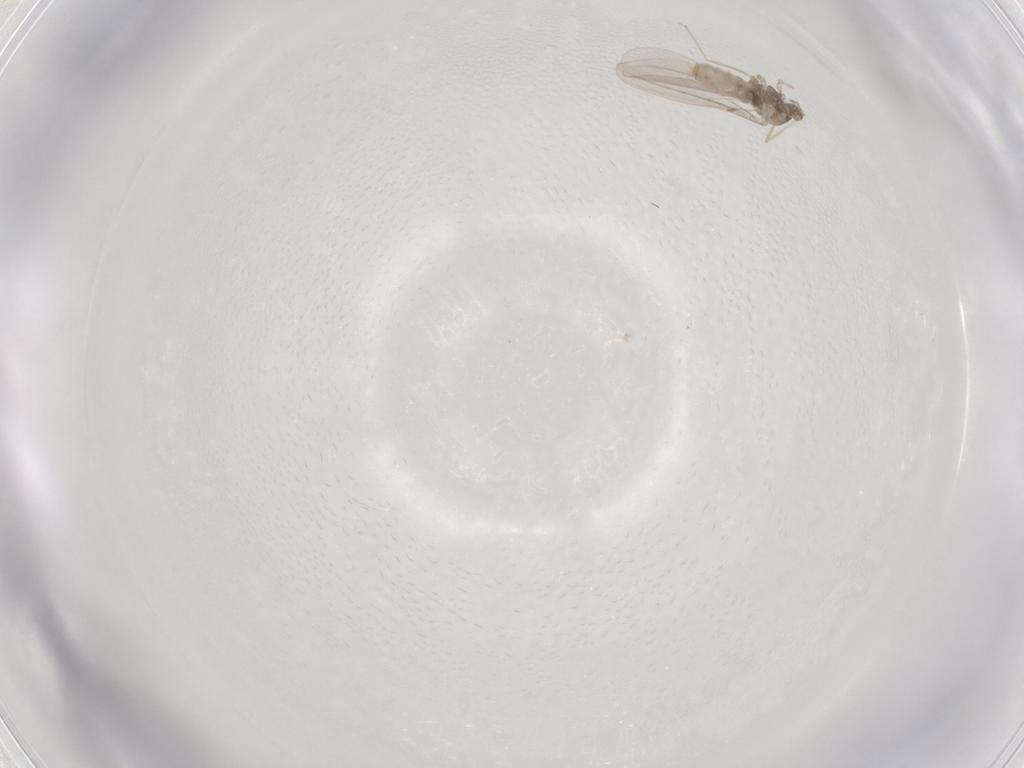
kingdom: Animalia
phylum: Arthropoda
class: Insecta
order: Diptera
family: Cecidomyiidae
